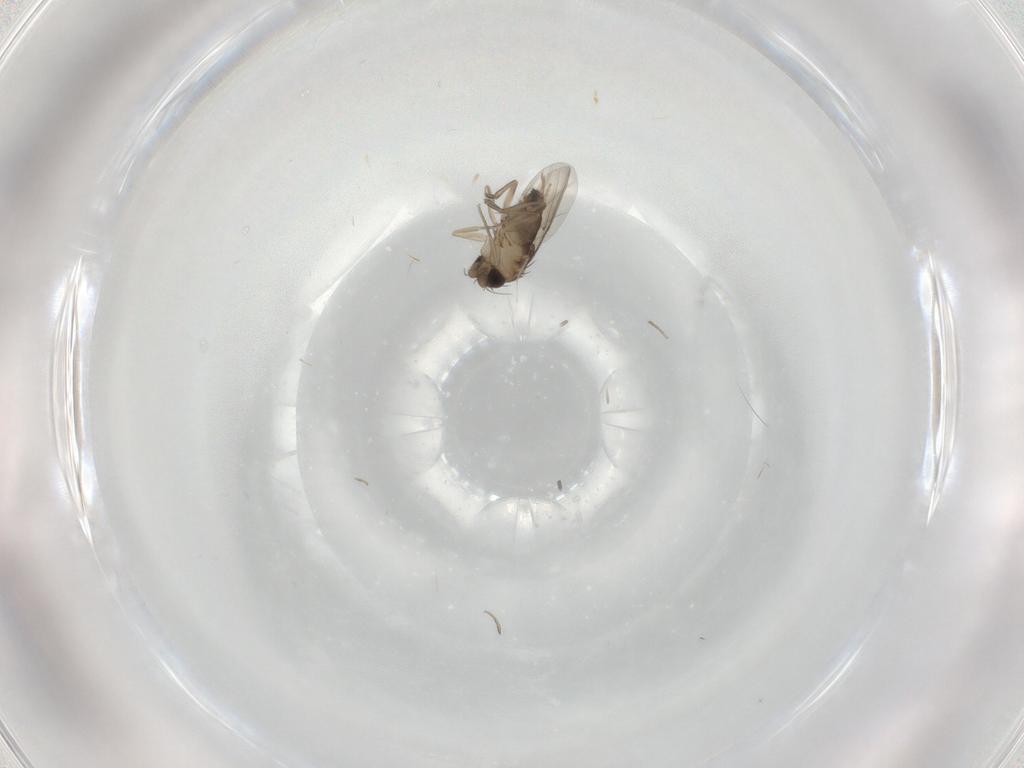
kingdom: Animalia
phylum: Arthropoda
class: Insecta
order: Diptera
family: Phoridae
